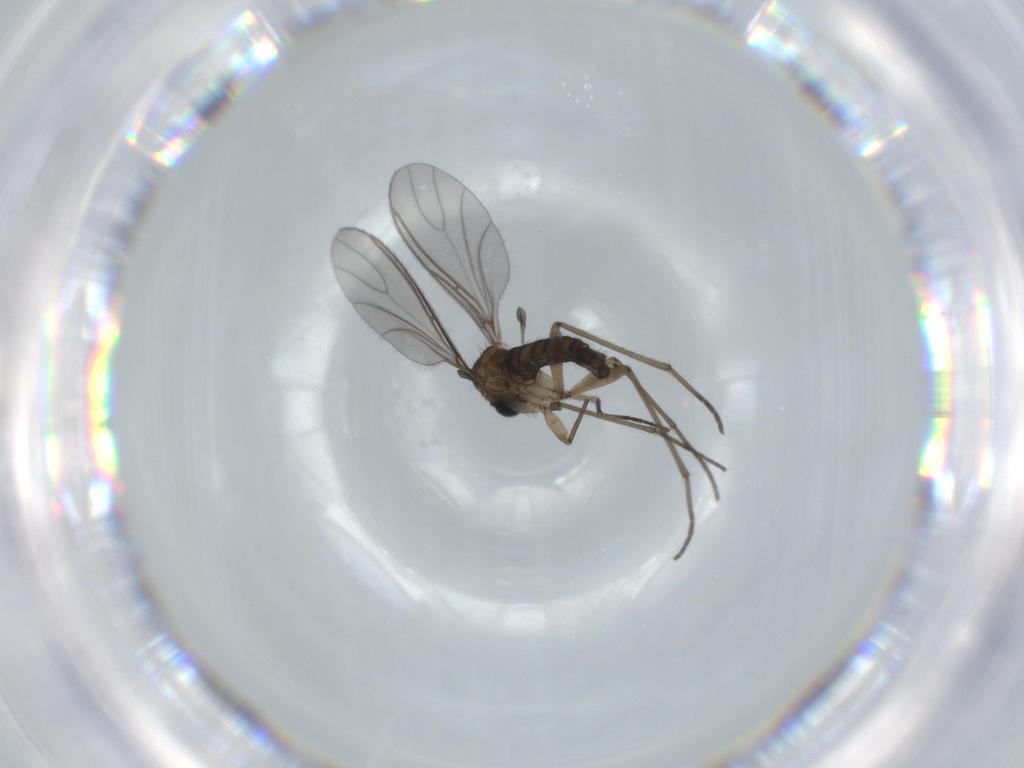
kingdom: Animalia
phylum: Arthropoda
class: Insecta
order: Diptera
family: Sciaridae
